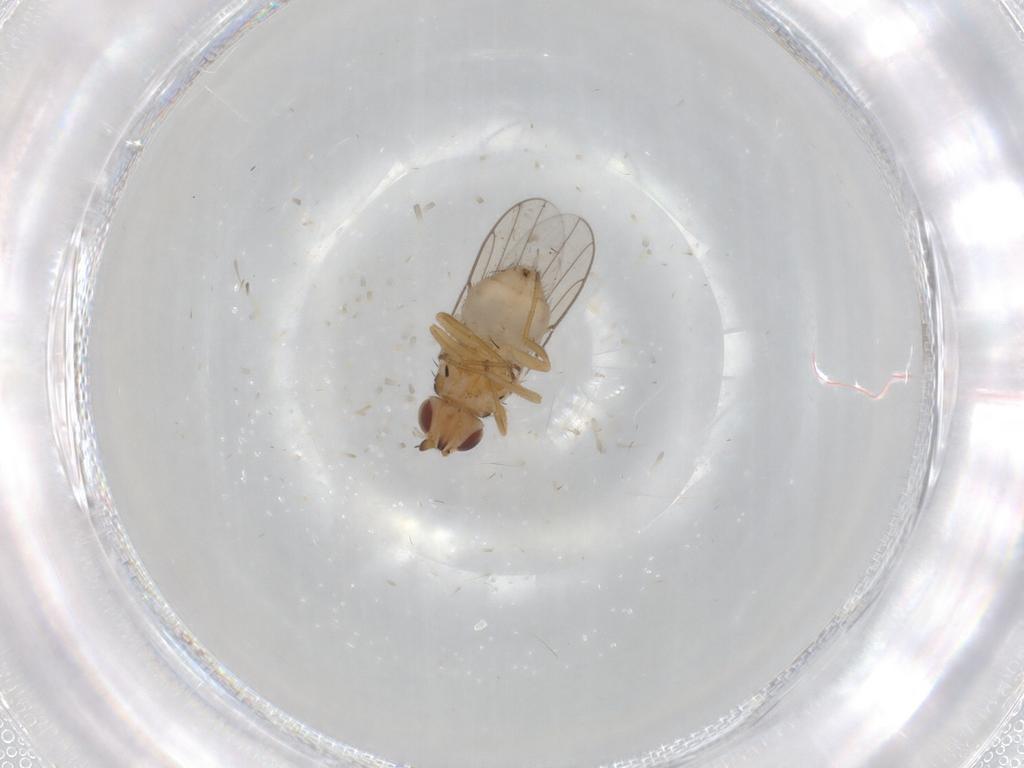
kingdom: Animalia
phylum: Arthropoda
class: Insecta
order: Diptera
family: Chloropidae
